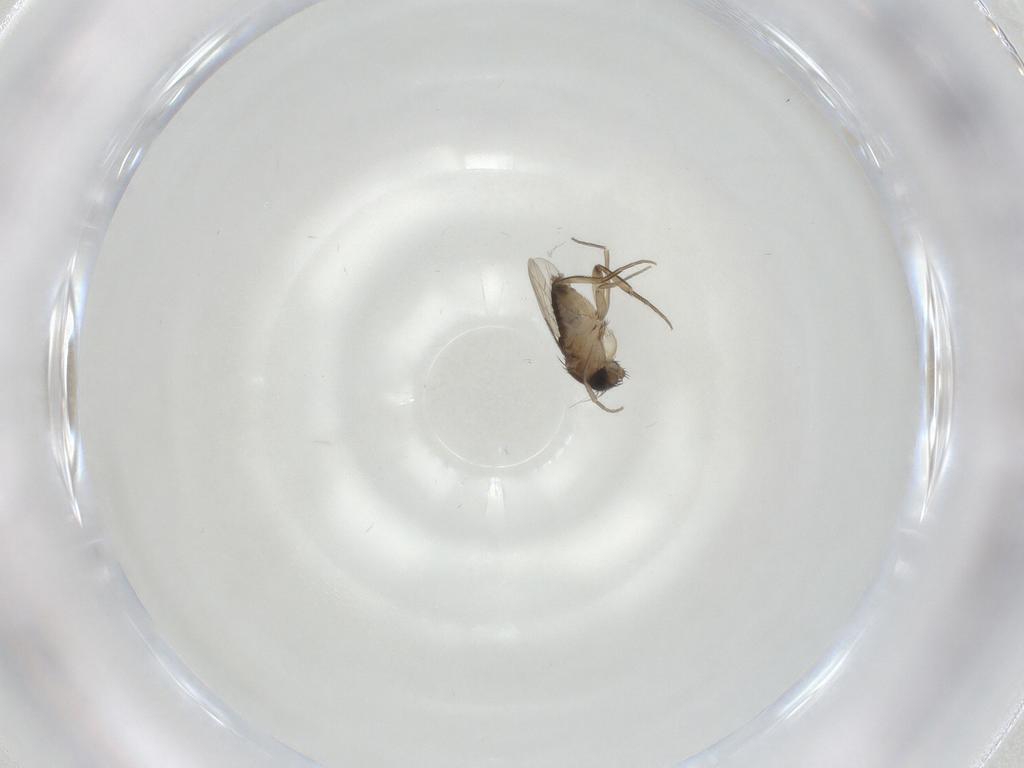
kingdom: Animalia
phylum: Arthropoda
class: Insecta
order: Diptera
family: Phoridae
